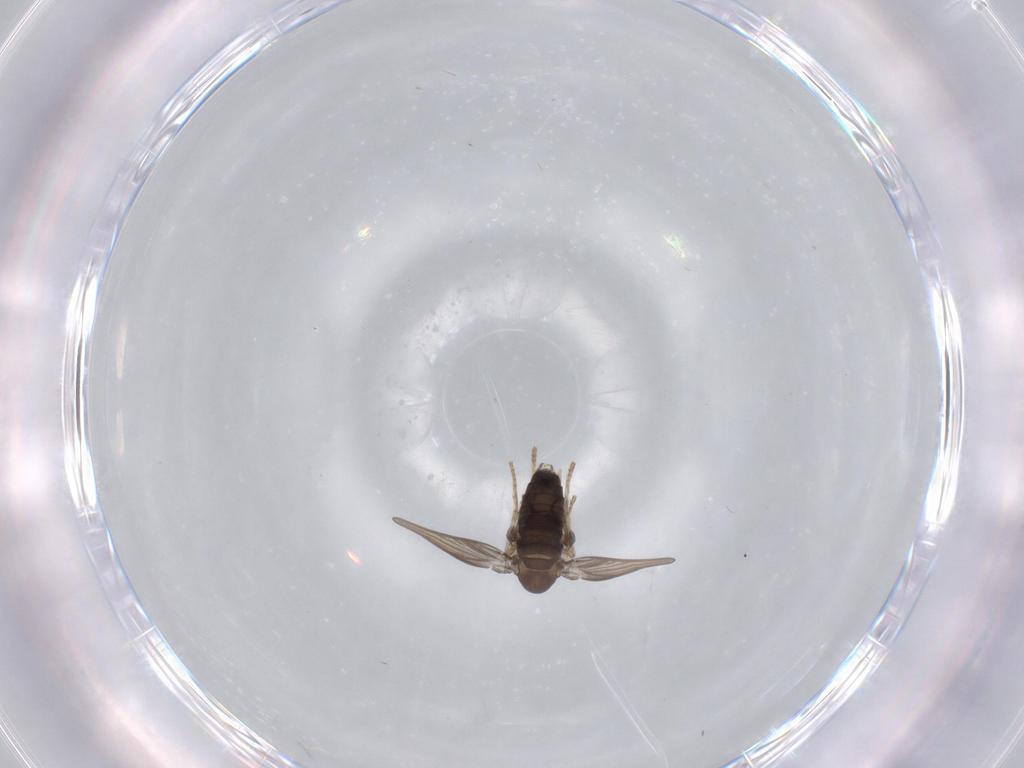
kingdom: Animalia
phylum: Arthropoda
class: Insecta
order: Diptera
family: Psychodidae
